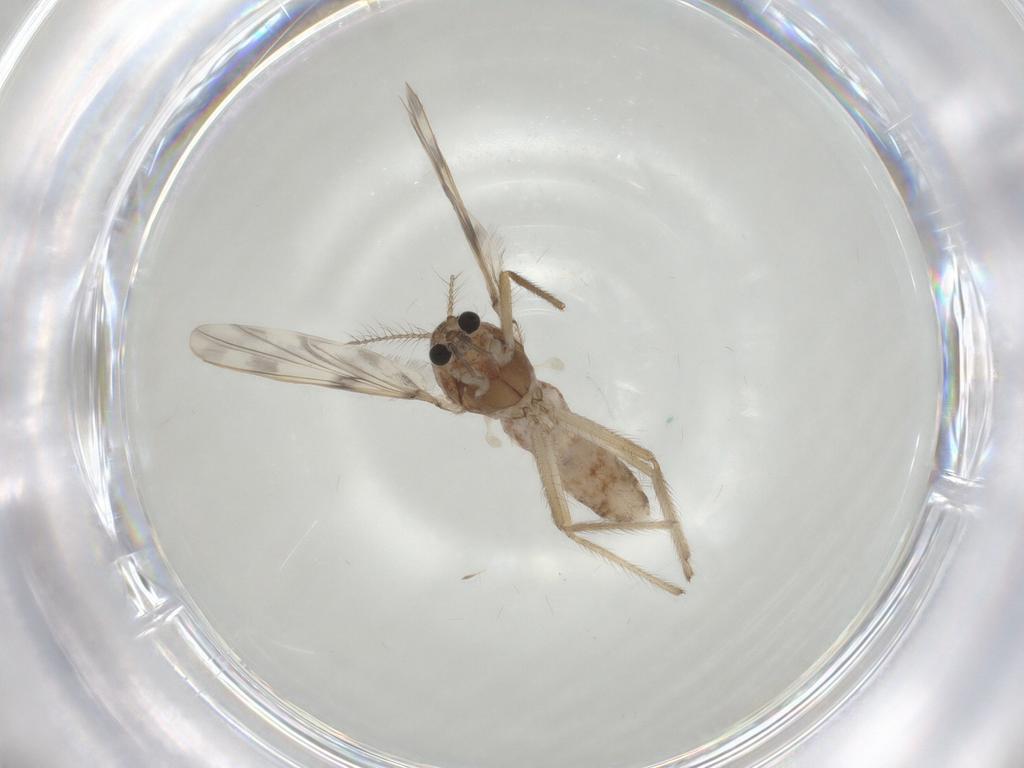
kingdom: Animalia
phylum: Arthropoda
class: Insecta
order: Diptera
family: Chironomidae
